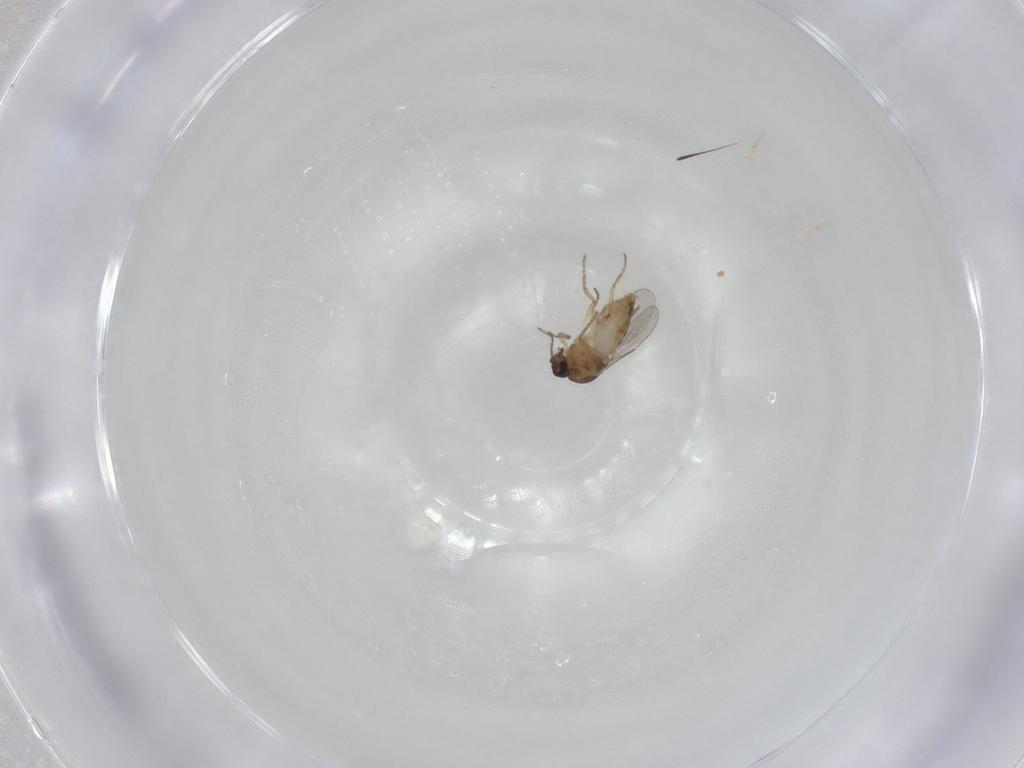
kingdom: Animalia
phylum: Arthropoda
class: Insecta
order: Diptera
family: Ceratopogonidae
